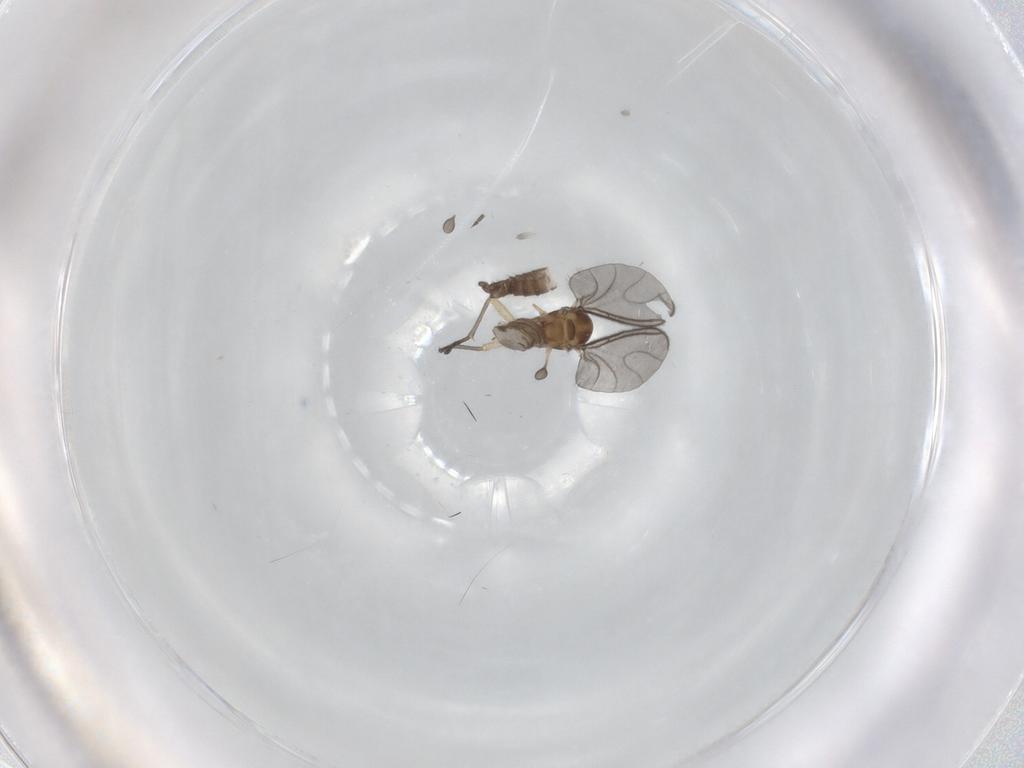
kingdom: Animalia
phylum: Arthropoda
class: Insecta
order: Diptera
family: Sciaridae
